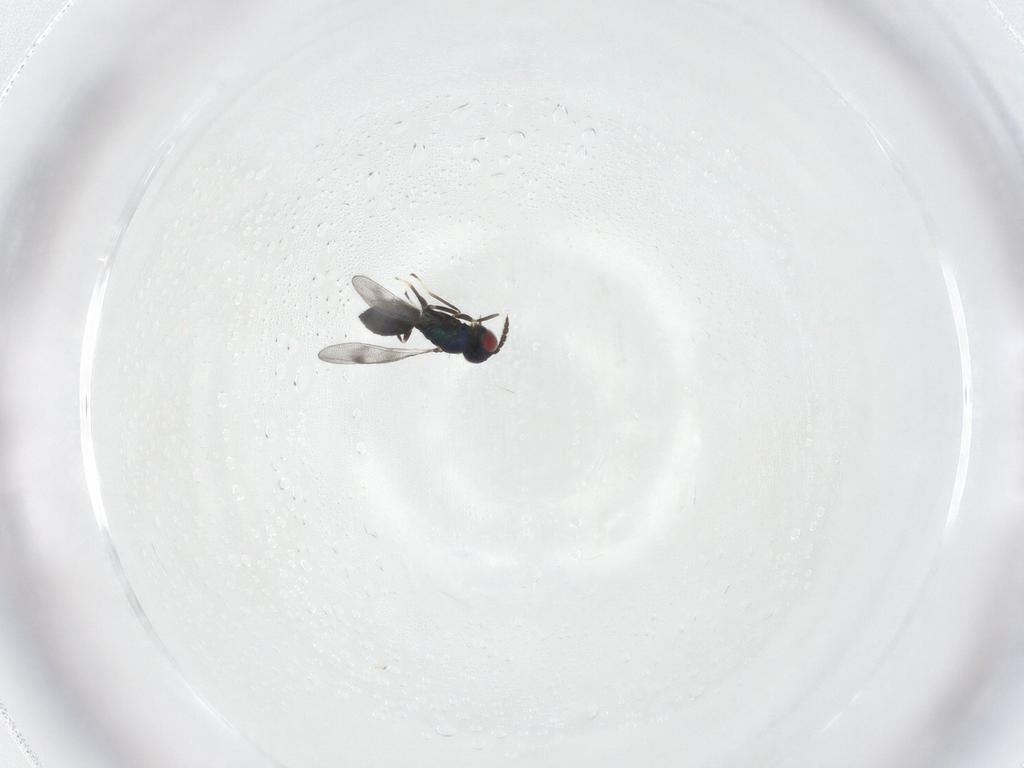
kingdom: Animalia
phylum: Arthropoda
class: Insecta
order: Hymenoptera
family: Eulophidae
